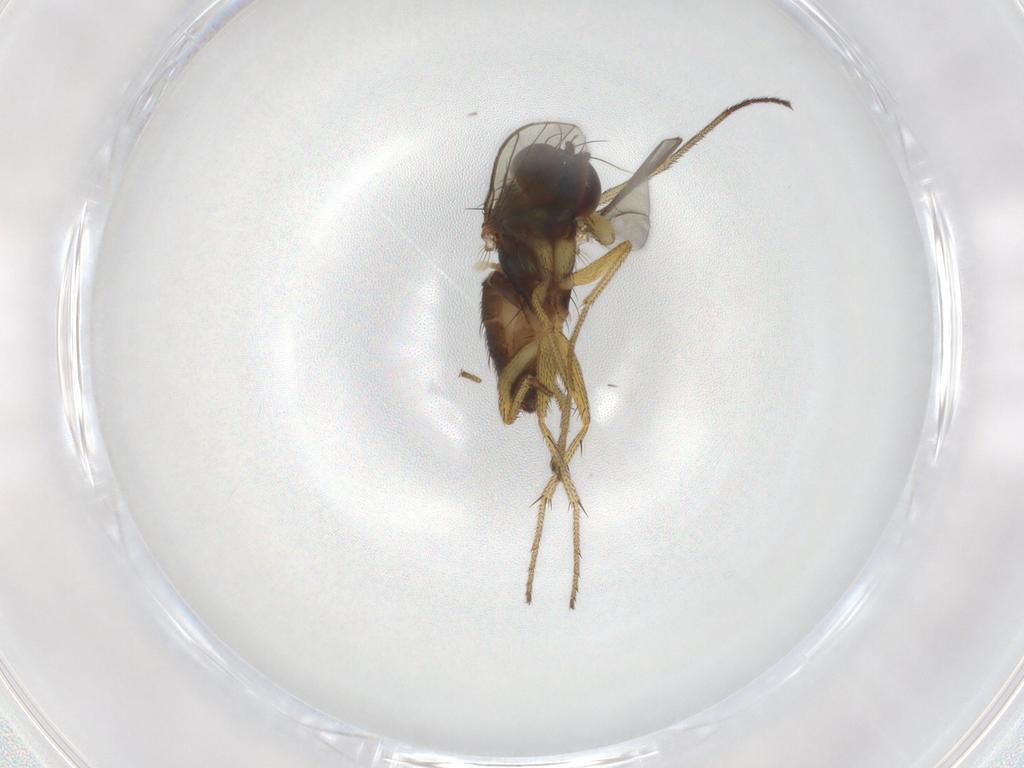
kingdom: Animalia
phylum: Arthropoda
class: Insecta
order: Diptera
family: Dolichopodidae
